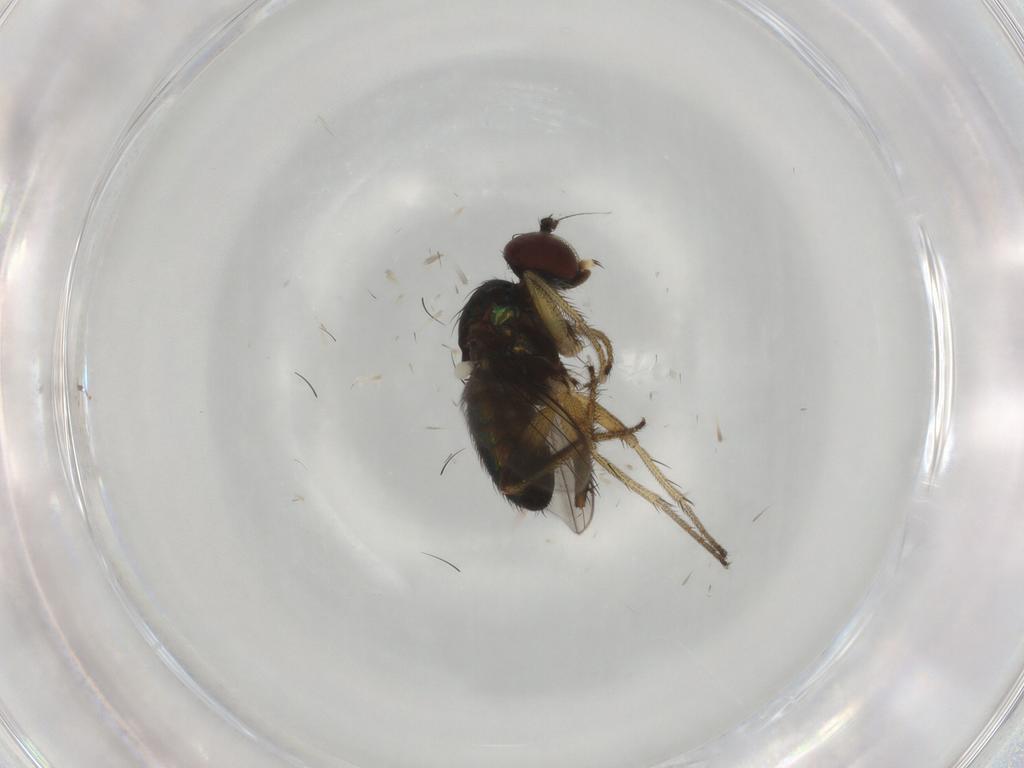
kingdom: Animalia
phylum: Arthropoda
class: Insecta
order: Diptera
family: Dolichopodidae
